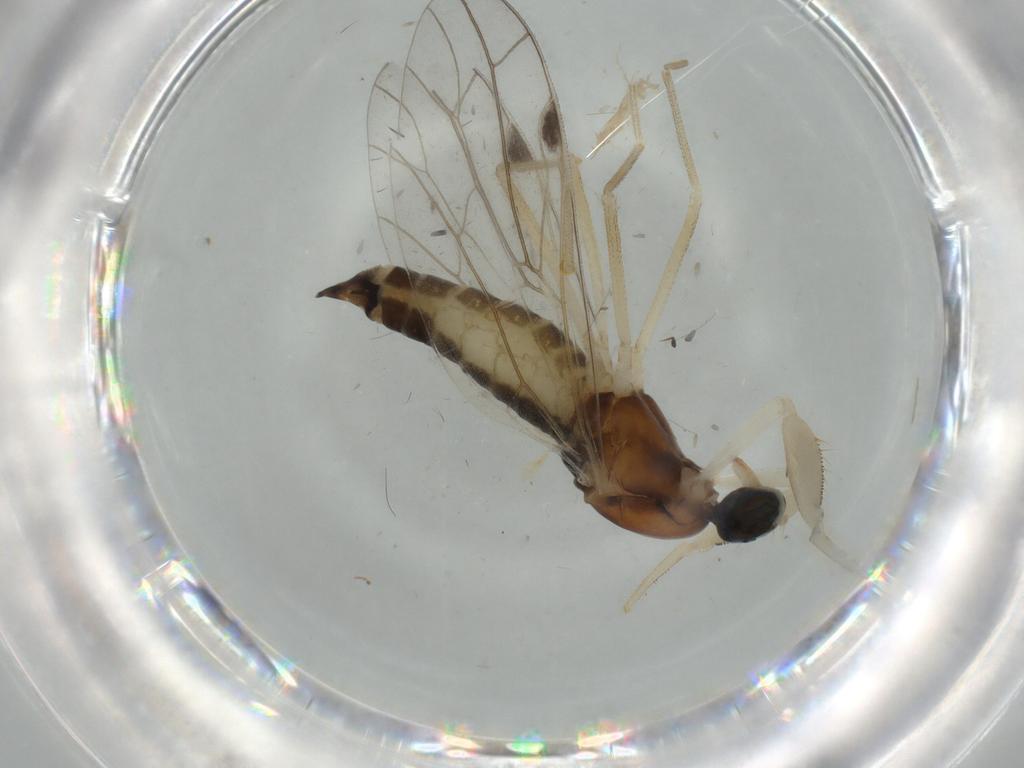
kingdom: Animalia
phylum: Arthropoda
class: Insecta
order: Diptera
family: Empididae
